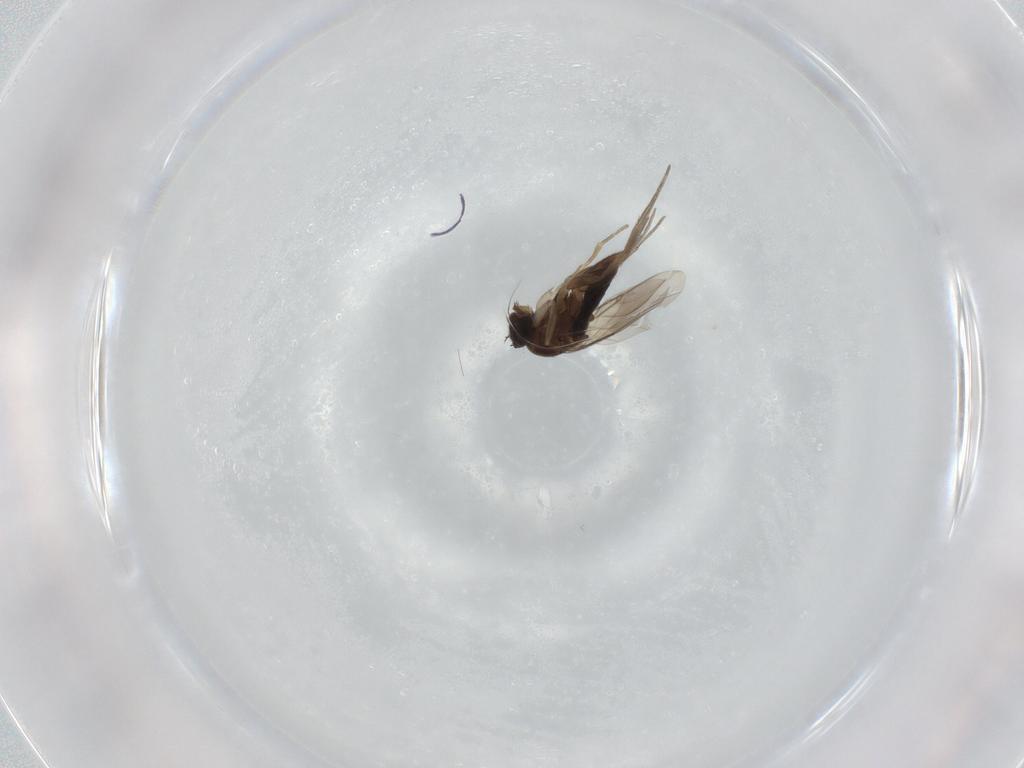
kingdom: Animalia
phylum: Arthropoda
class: Insecta
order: Diptera
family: Phoridae
